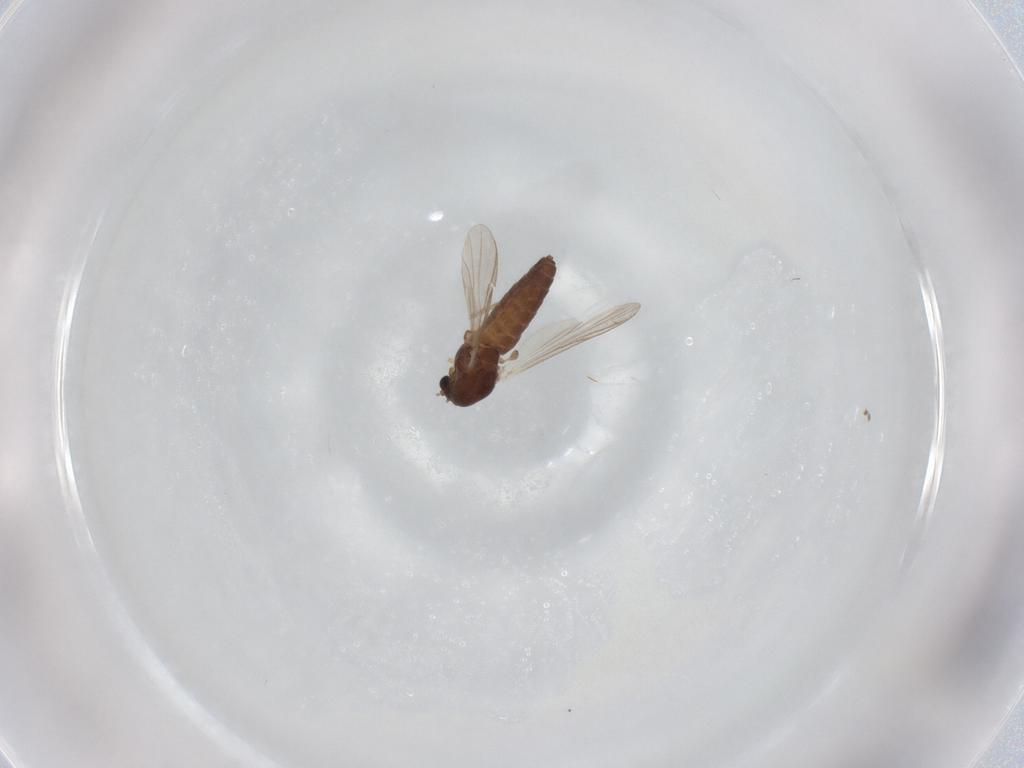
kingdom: Animalia
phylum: Arthropoda
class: Insecta
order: Diptera
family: Chironomidae
